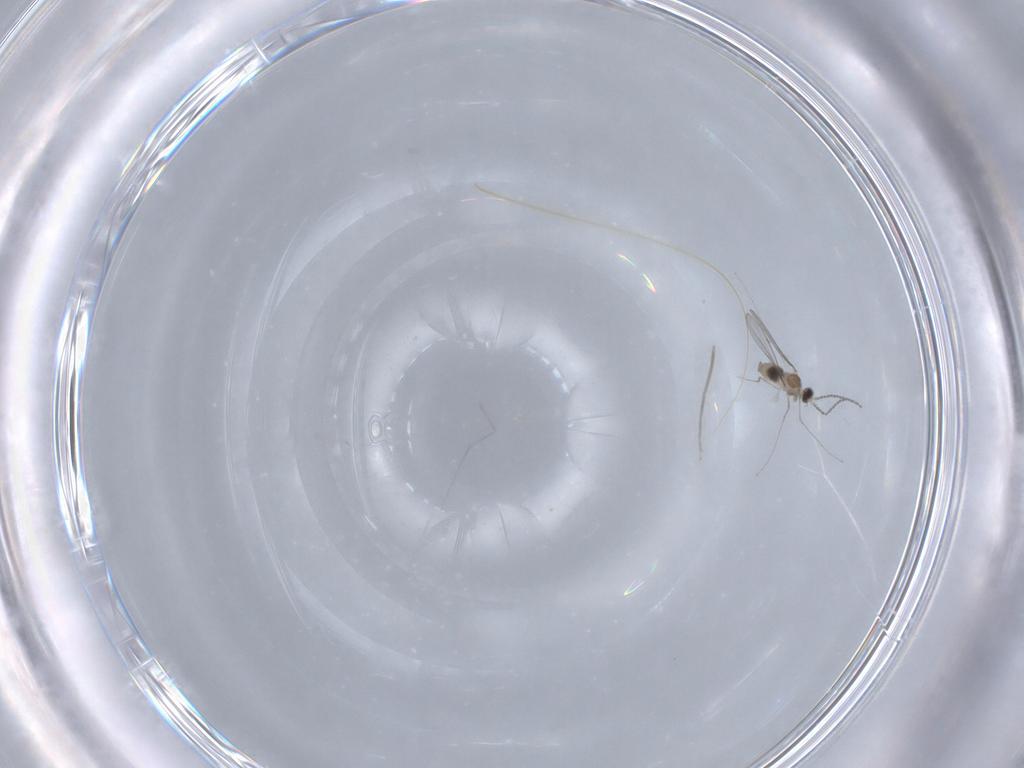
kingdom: Animalia
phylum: Arthropoda
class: Insecta
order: Diptera
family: Cecidomyiidae
